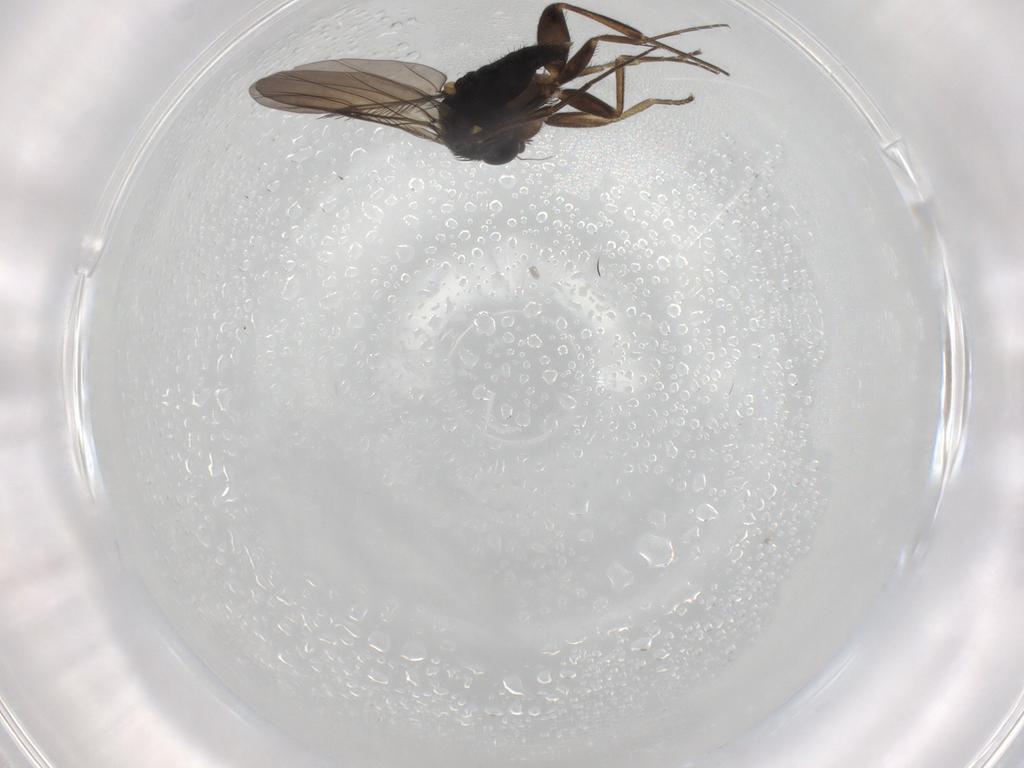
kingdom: Animalia
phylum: Arthropoda
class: Insecta
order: Diptera
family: Phoridae
